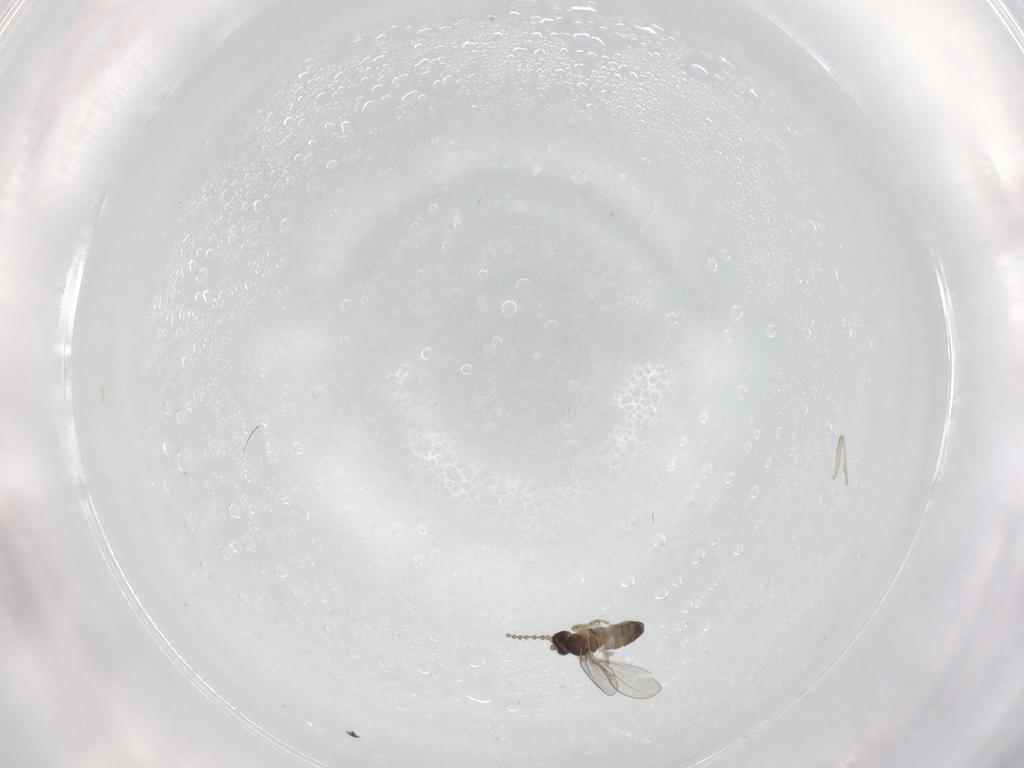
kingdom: Animalia
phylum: Arthropoda
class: Insecta
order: Diptera
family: Cecidomyiidae
